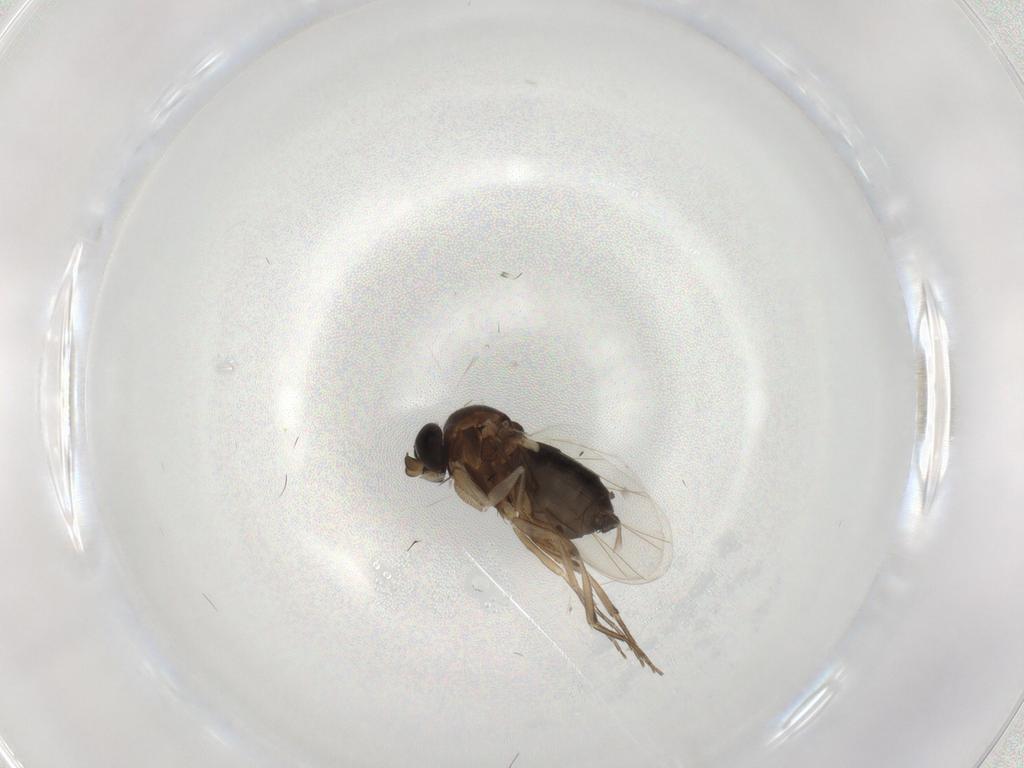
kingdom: Animalia
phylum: Arthropoda
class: Insecta
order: Diptera
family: Phoridae
